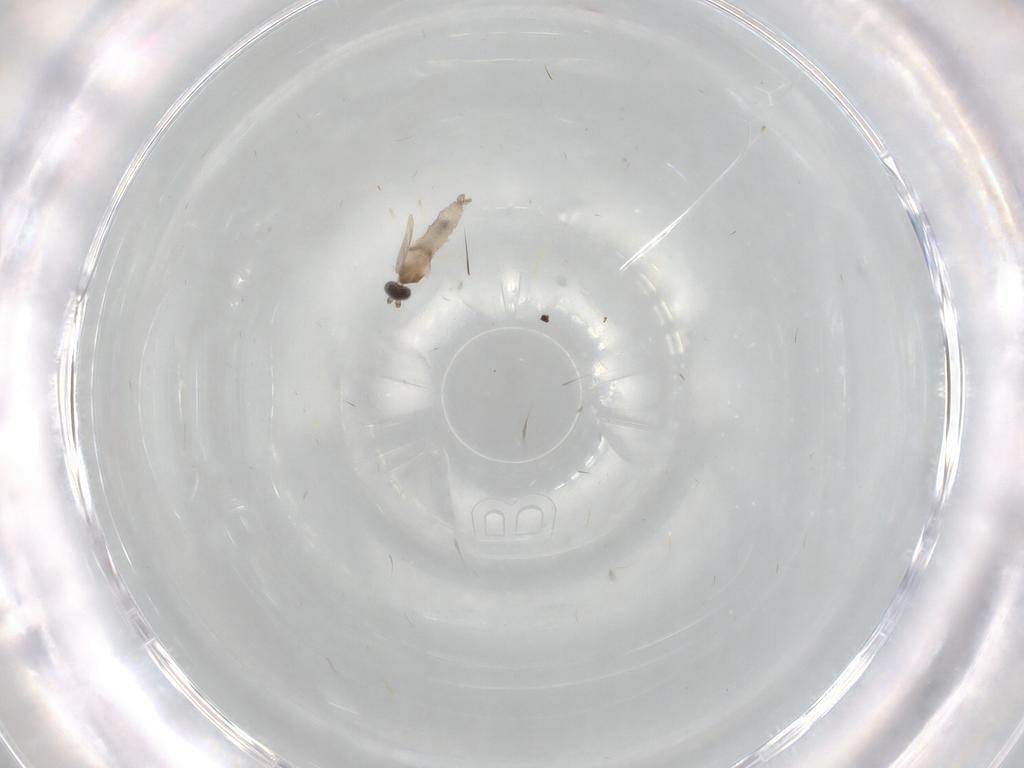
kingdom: Animalia
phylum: Arthropoda
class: Insecta
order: Diptera
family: Cecidomyiidae
